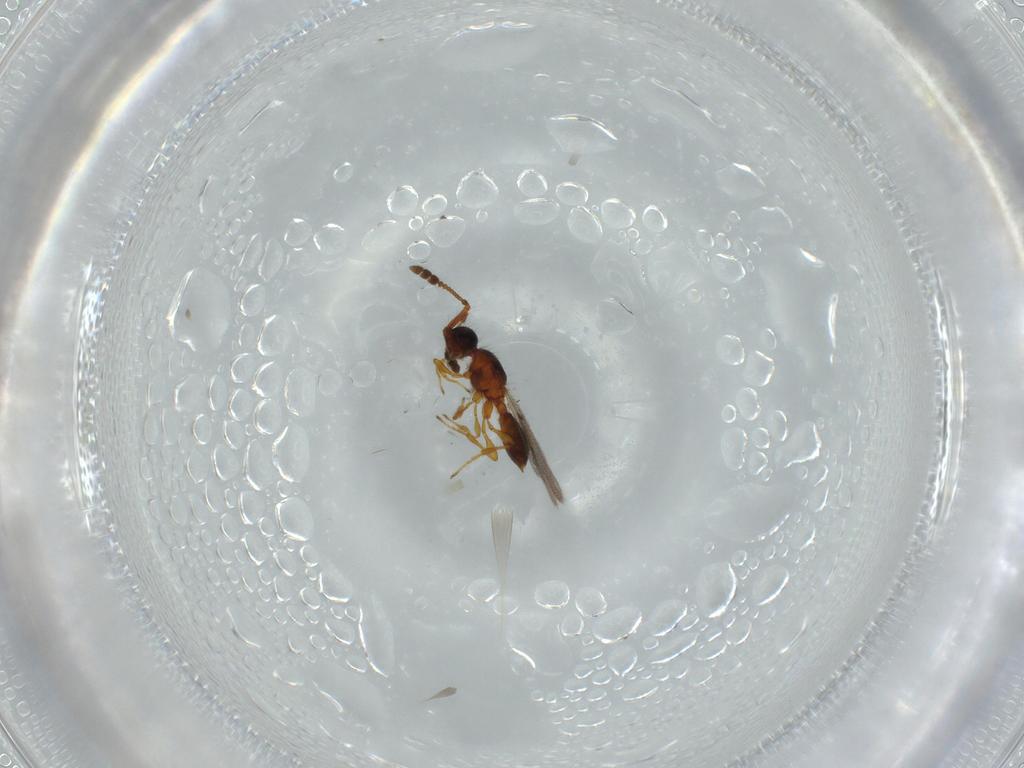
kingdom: Animalia
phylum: Arthropoda
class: Insecta
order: Hymenoptera
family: Diapriidae
